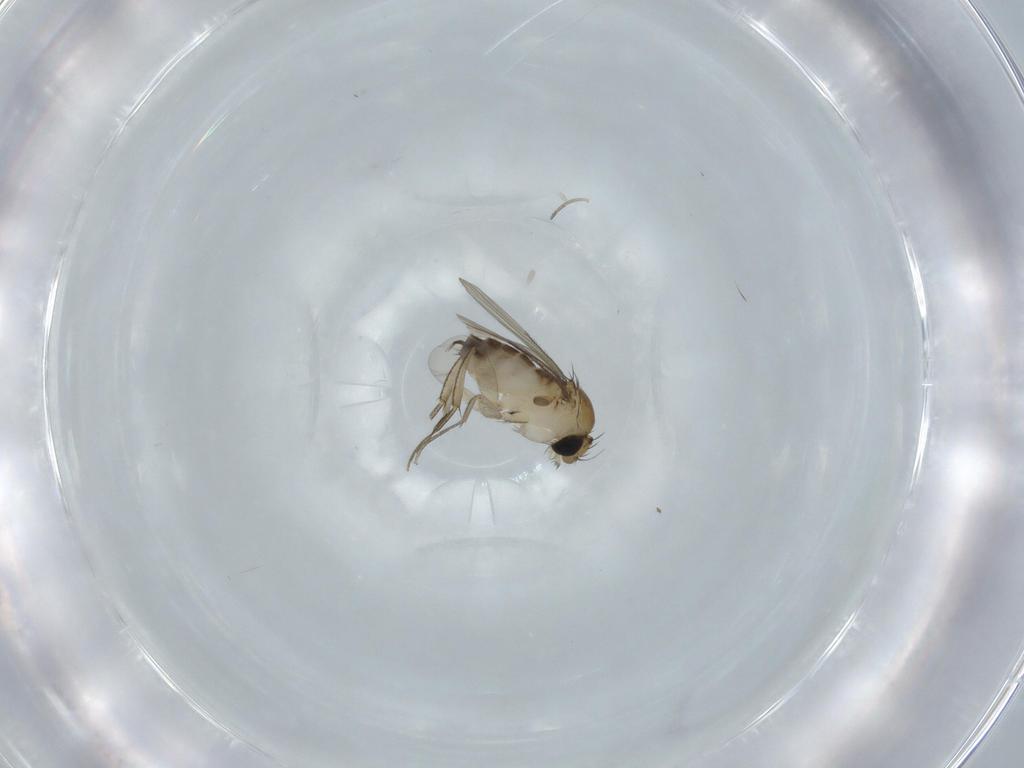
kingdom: Animalia
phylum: Arthropoda
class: Insecta
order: Diptera
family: Phoridae
